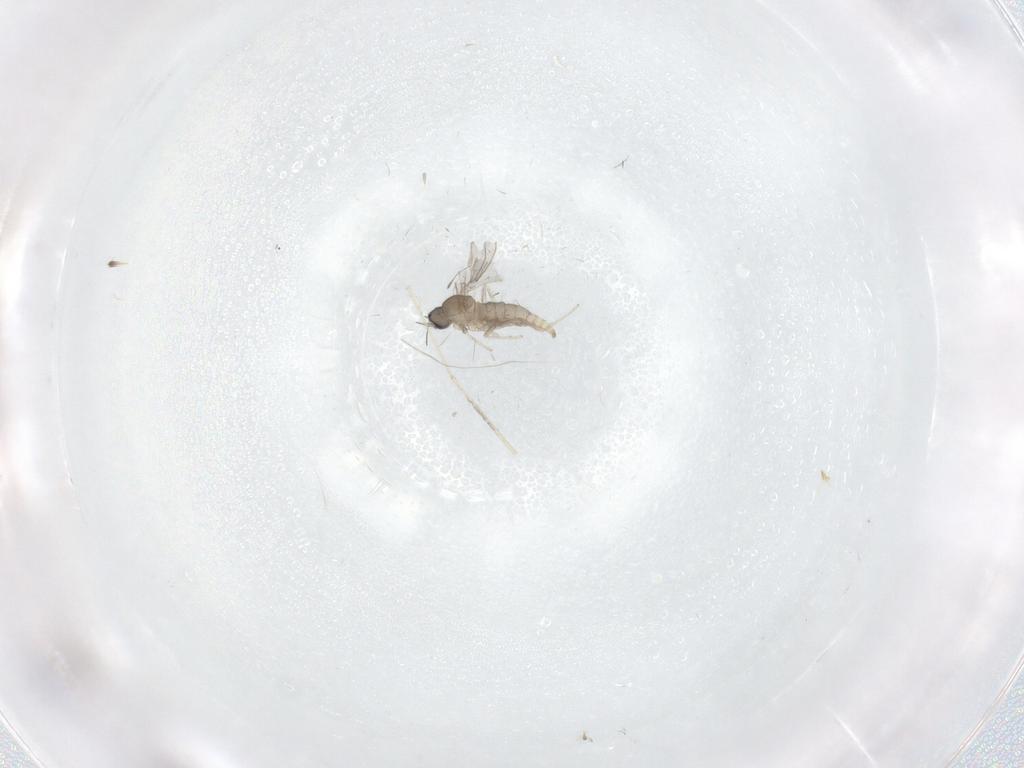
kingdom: Animalia
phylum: Arthropoda
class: Insecta
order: Diptera
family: Cecidomyiidae
